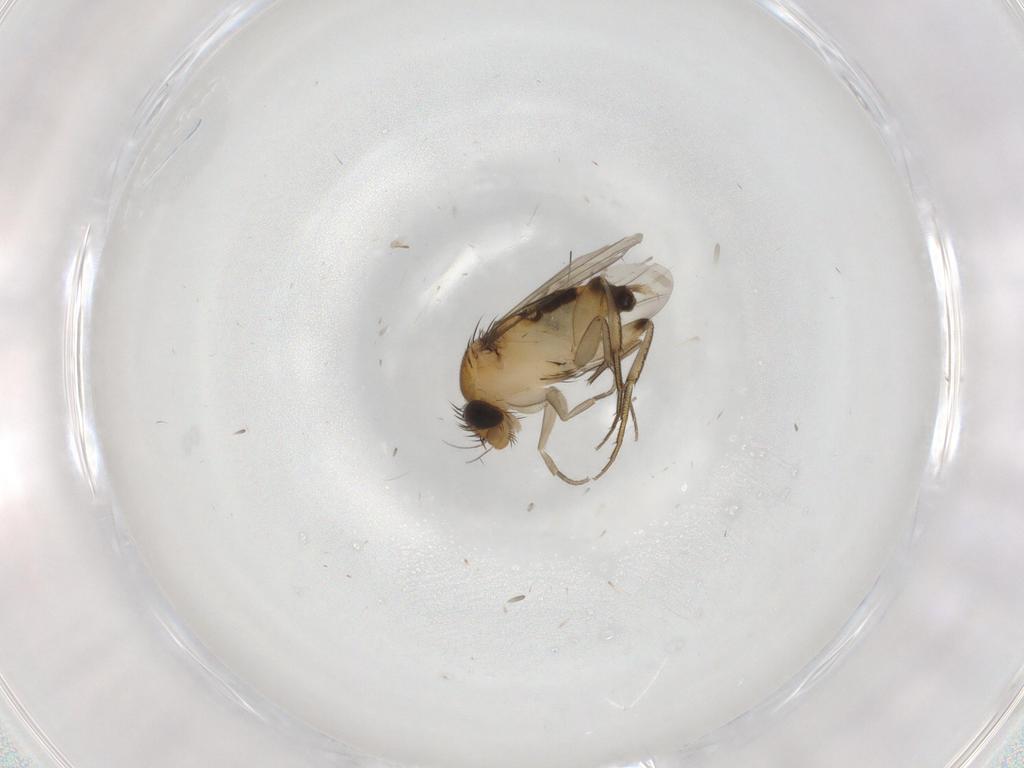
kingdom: Animalia
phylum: Arthropoda
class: Insecta
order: Diptera
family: Phoridae
